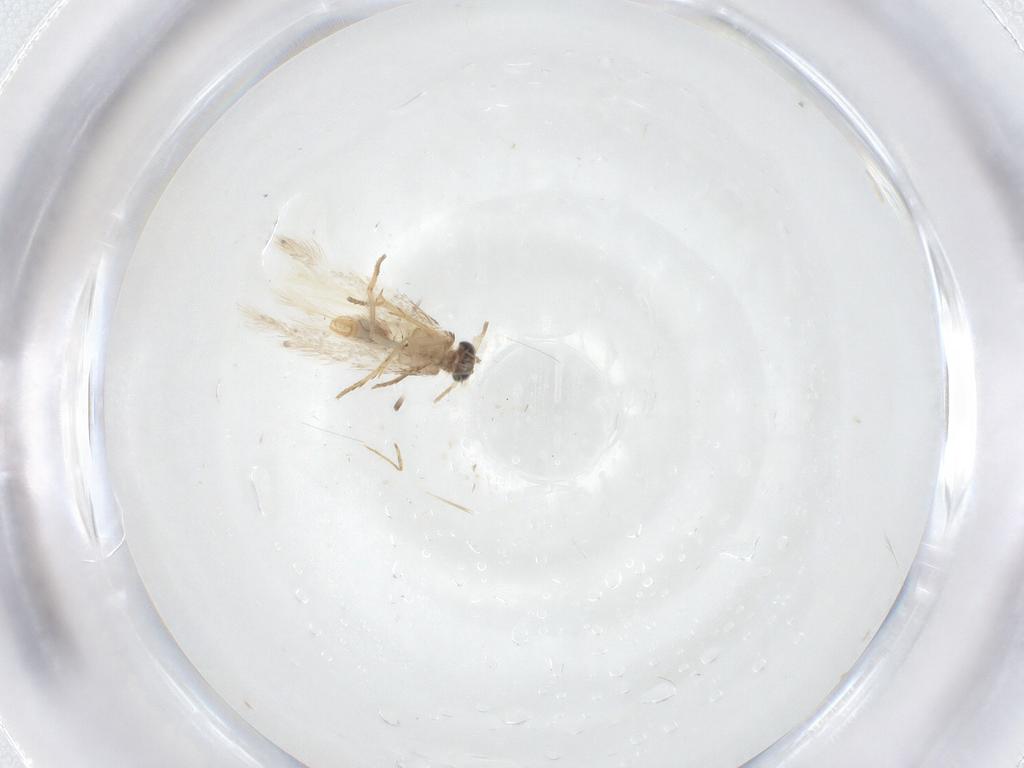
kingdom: Animalia
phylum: Arthropoda
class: Insecta
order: Lepidoptera
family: Nepticulidae
